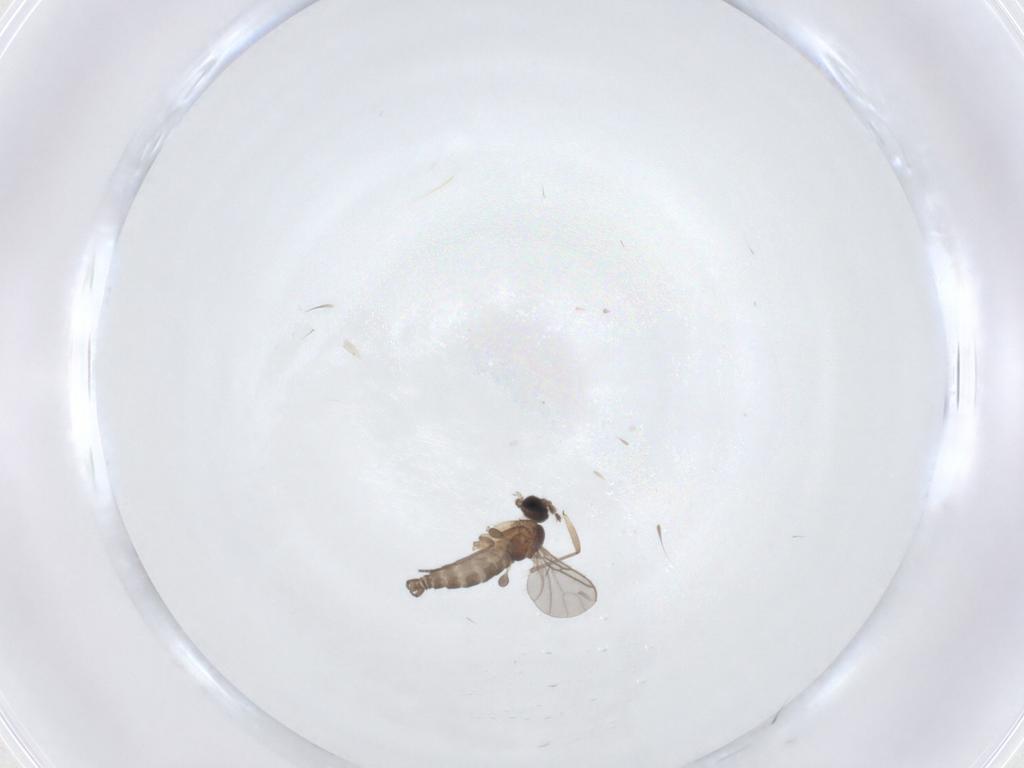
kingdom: Animalia
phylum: Arthropoda
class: Insecta
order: Diptera
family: Sciaridae
